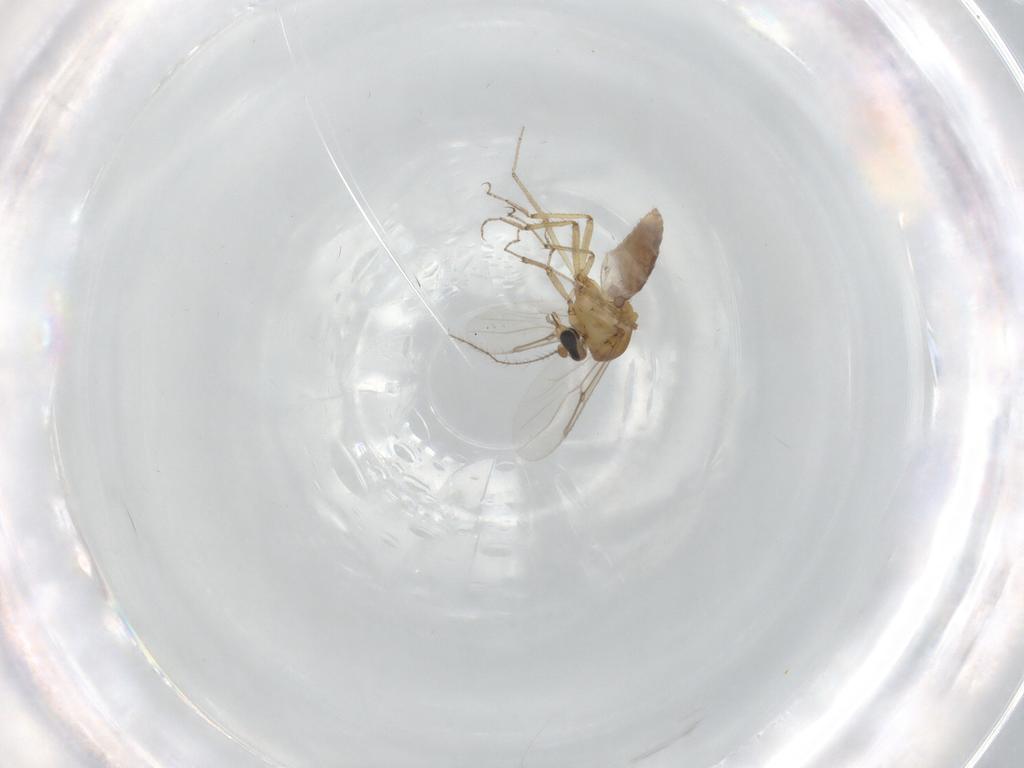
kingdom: Animalia
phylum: Arthropoda
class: Insecta
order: Diptera
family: Ceratopogonidae
